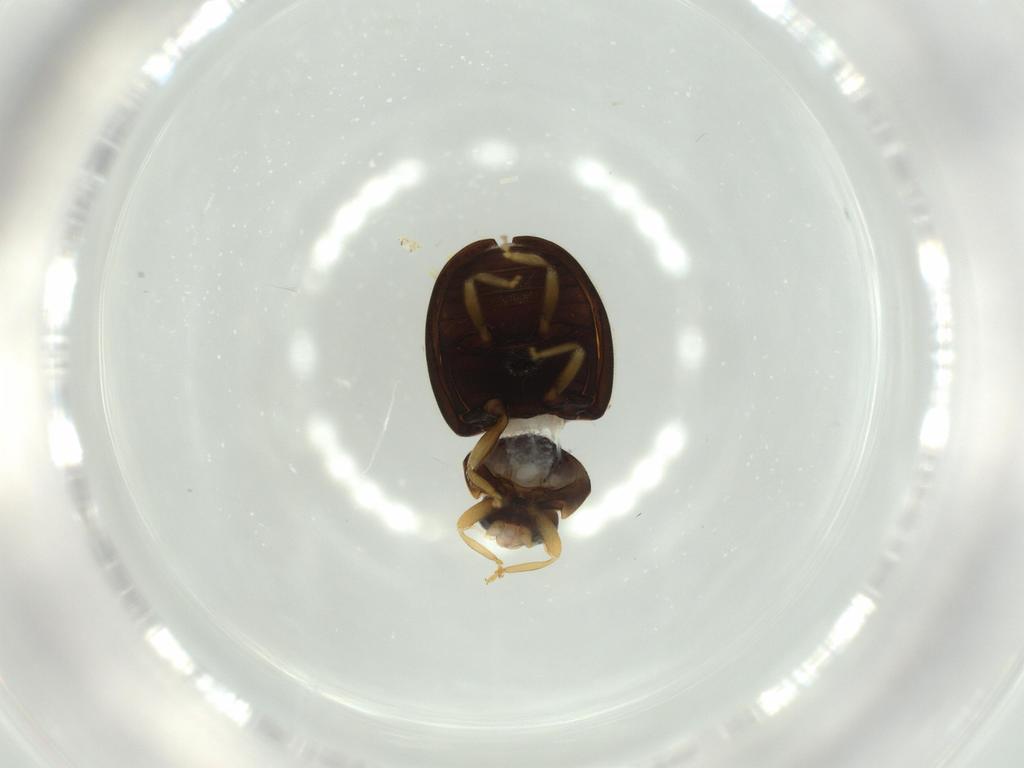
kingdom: Animalia
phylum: Arthropoda
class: Insecta
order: Coleoptera
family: Coccinellidae
